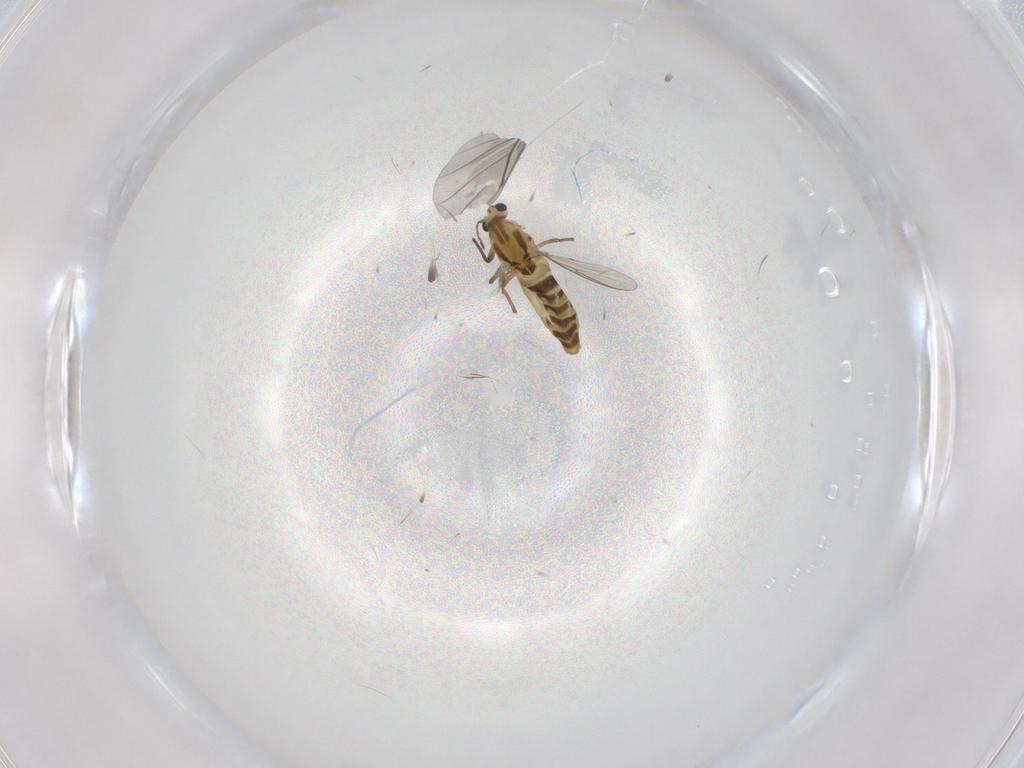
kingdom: Animalia
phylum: Arthropoda
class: Insecta
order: Diptera
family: Chironomidae
